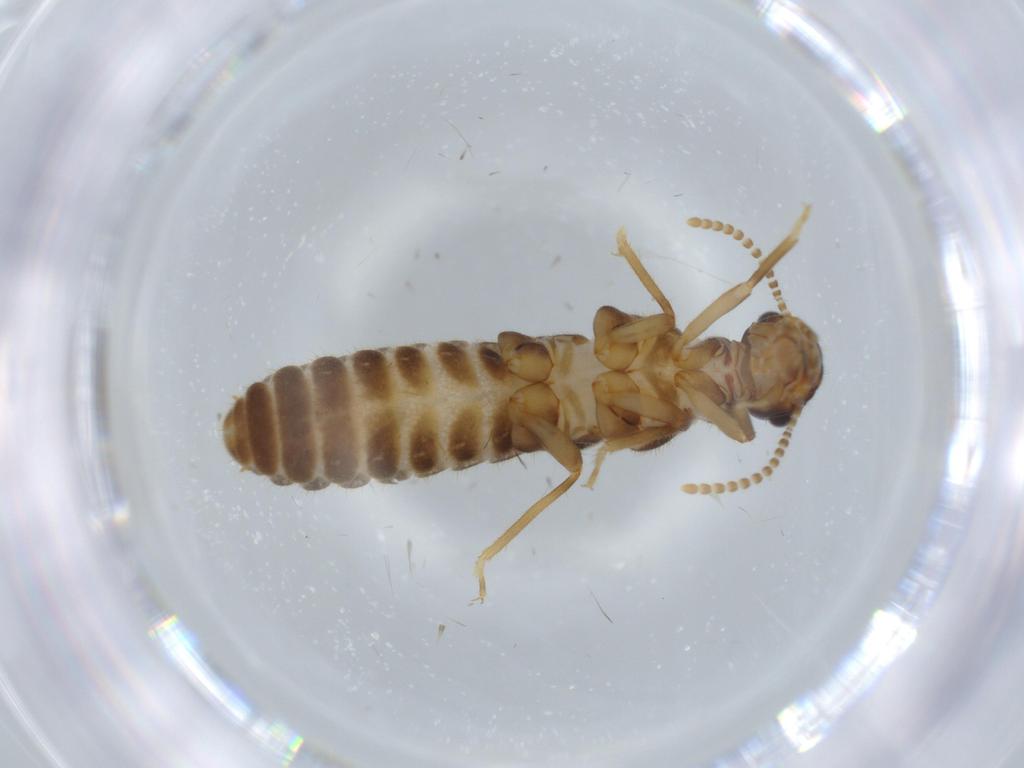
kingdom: Animalia
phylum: Arthropoda
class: Insecta
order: Blattodea
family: Termitidae
